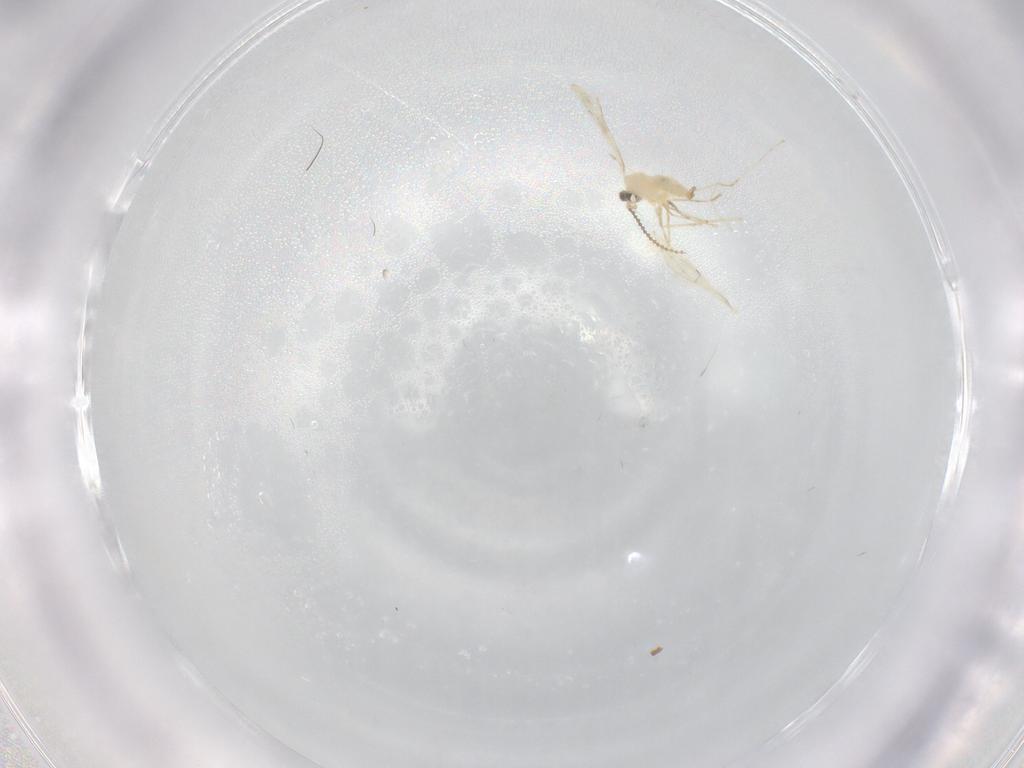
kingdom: Animalia
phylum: Arthropoda
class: Insecta
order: Diptera
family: Cecidomyiidae
